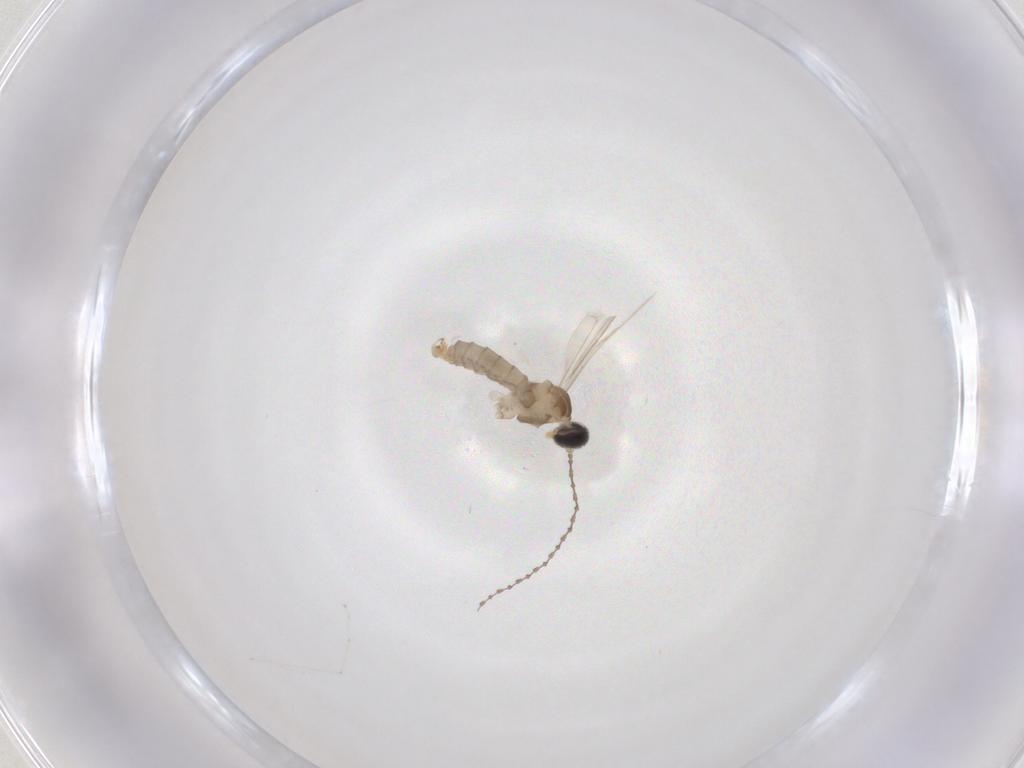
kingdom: Animalia
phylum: Arthropoda
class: Insecta
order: Diptera
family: Cecidomyiidae
